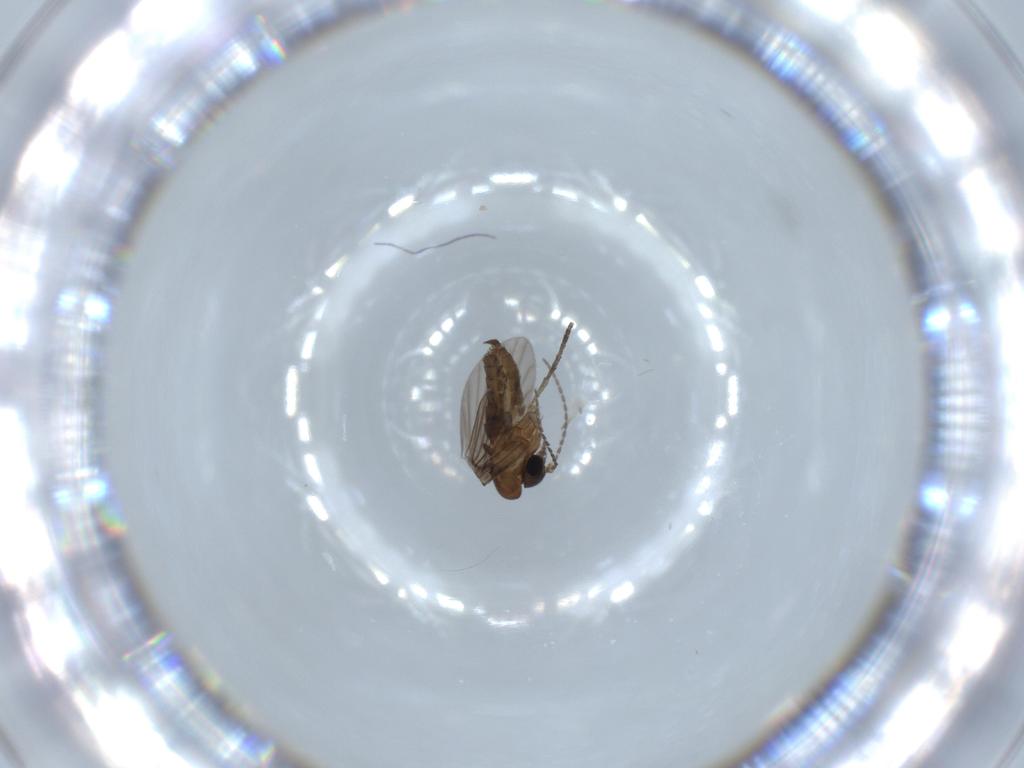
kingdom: Animalia
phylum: Arthropoda
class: Insecta
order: Diptera
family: Psychodidae
